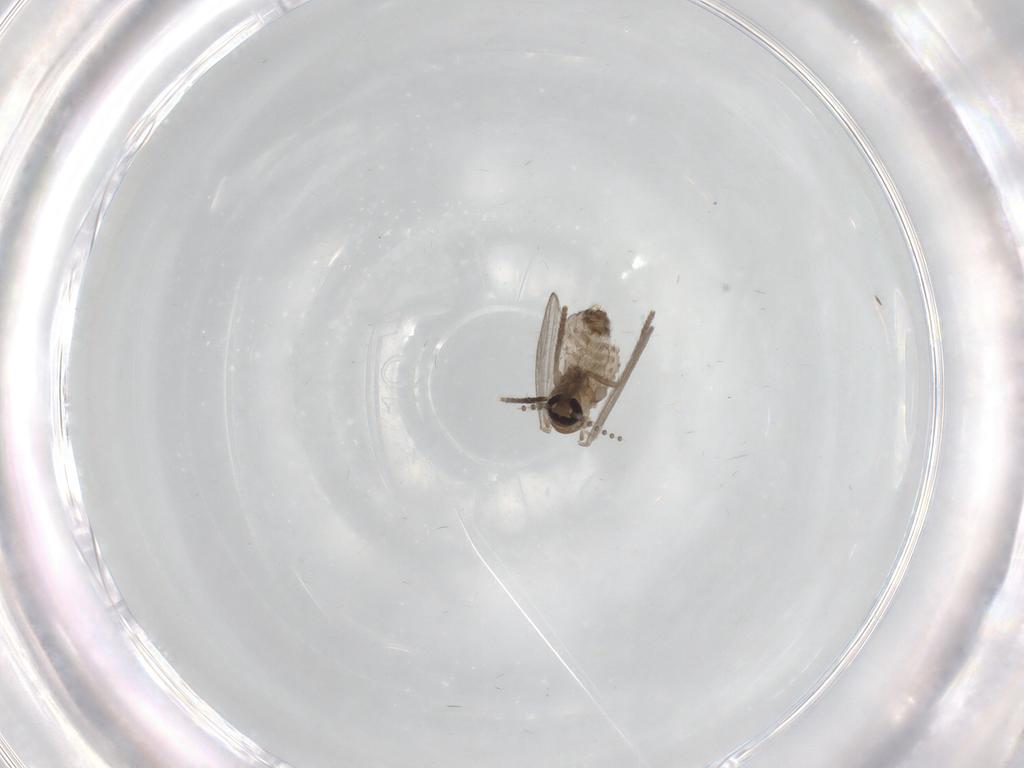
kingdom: Animalia
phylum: Arthropoda
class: Insecta
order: Diptera
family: Psychodidae
